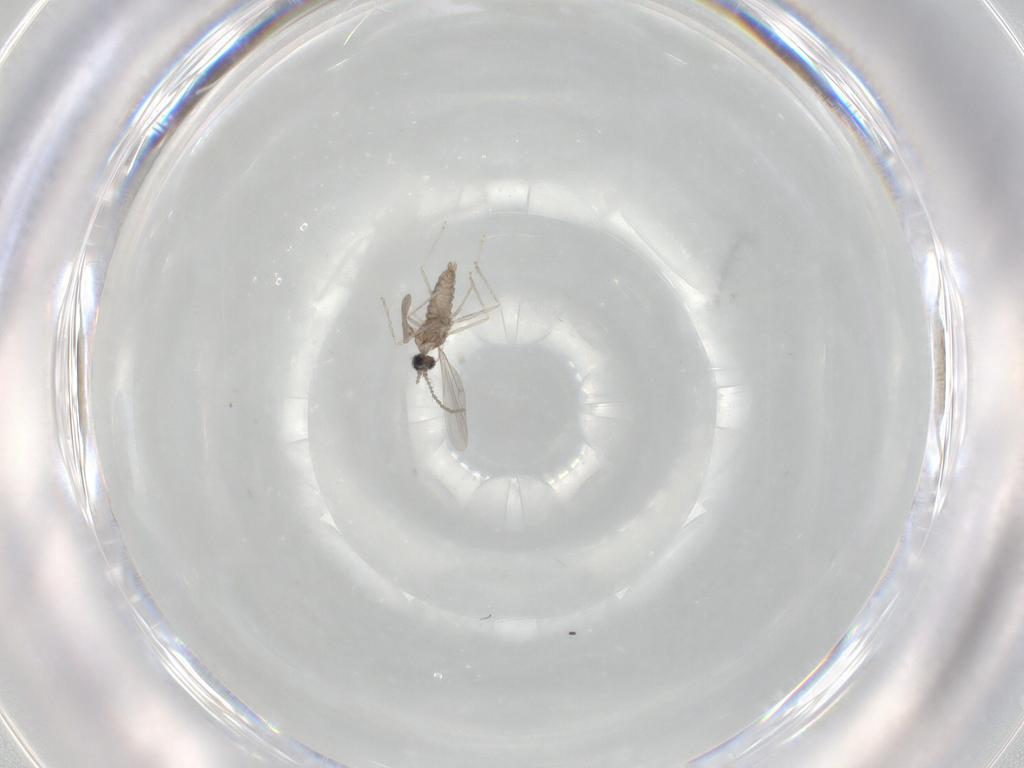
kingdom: Animalia
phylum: Arthropoda
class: Insecta
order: Diptera
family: Cecidomyiidae
